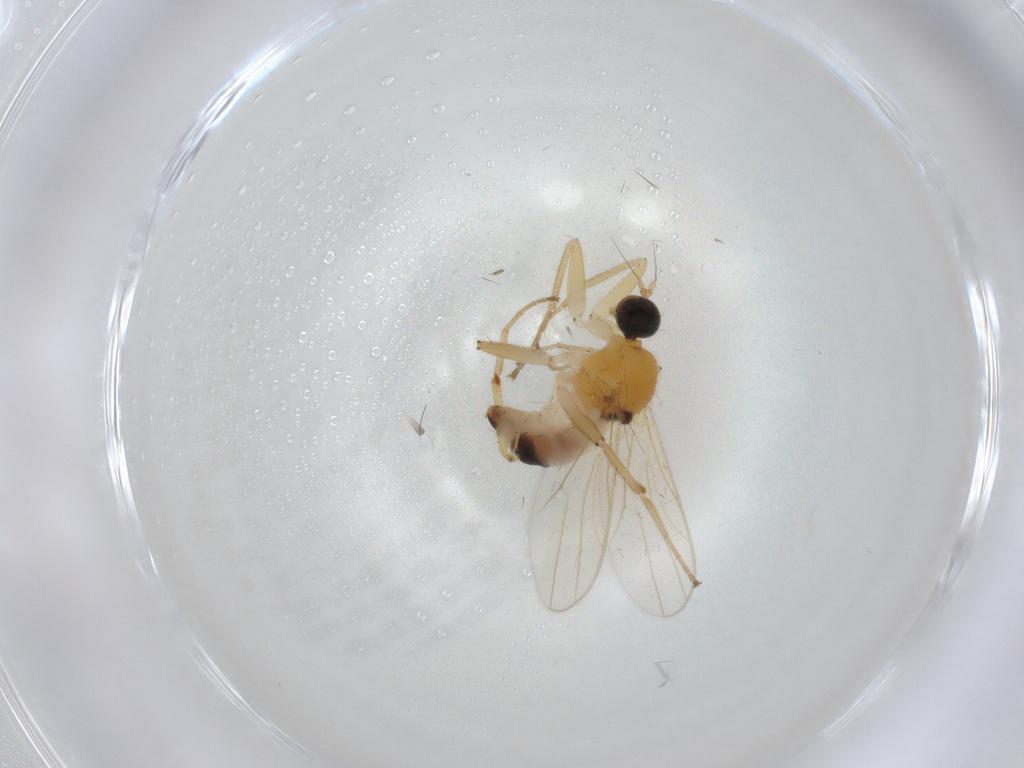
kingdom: Animalia
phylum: Arthropoda
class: Insecta
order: Diptera
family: Hybotidae
